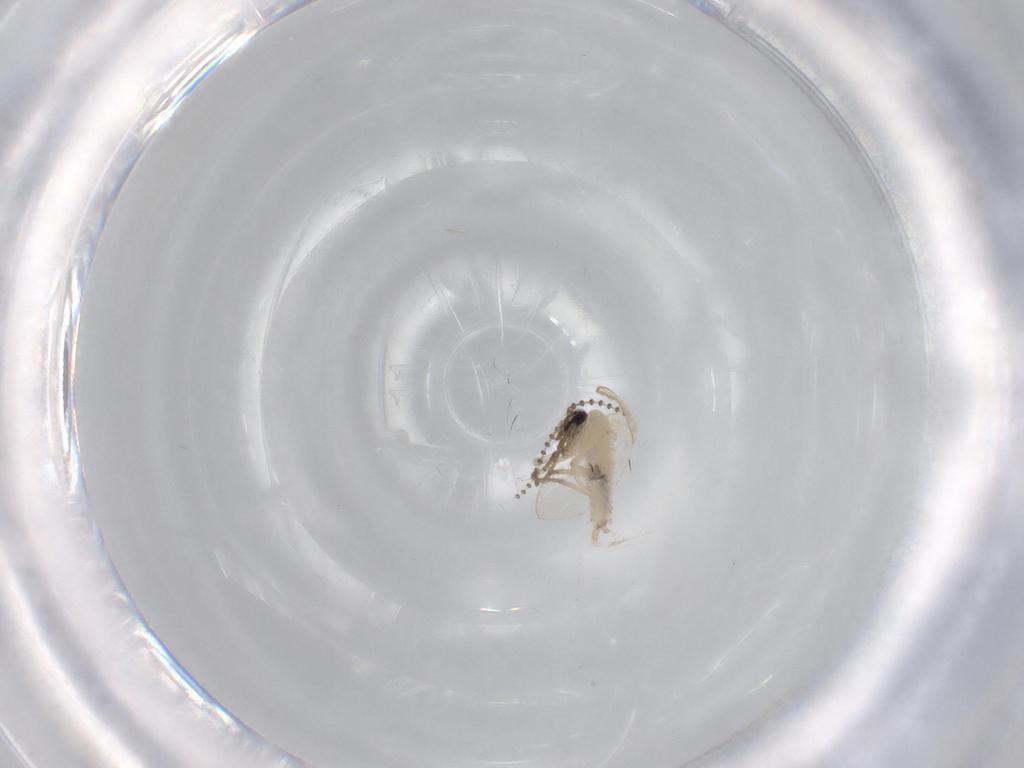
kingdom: Animalia
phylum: Arthropoda
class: Insecta
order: Diptera
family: Psychodidae
